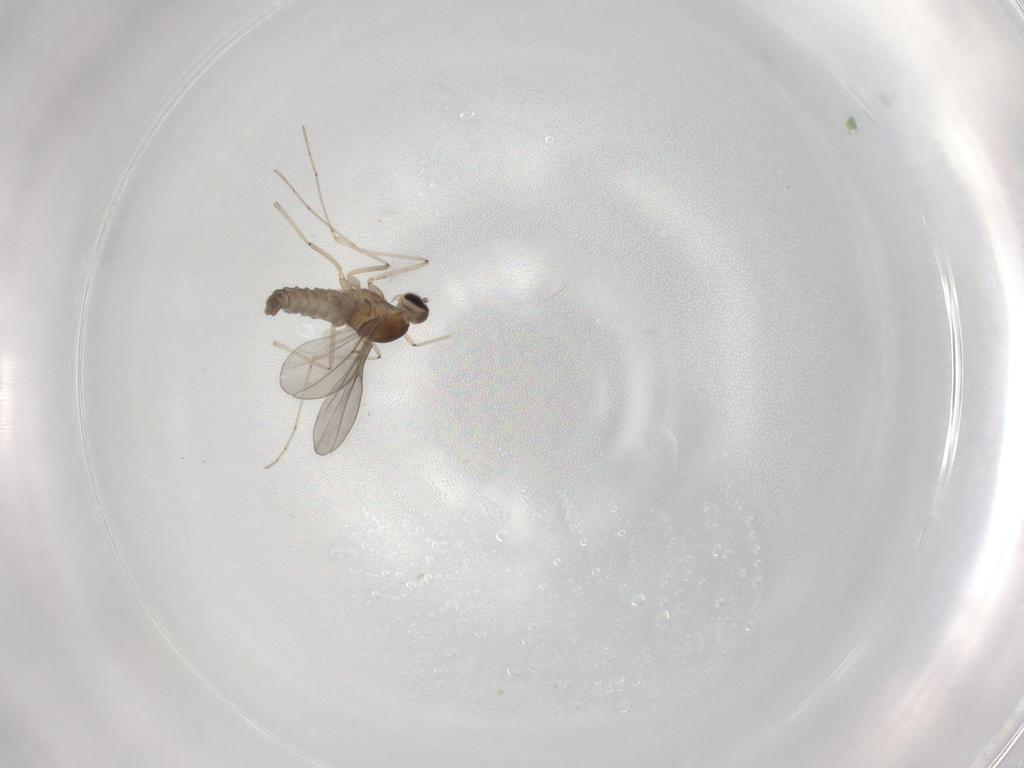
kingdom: Animalia
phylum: Arthropoda
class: Insecta
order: Diptera
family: Cecidomyiidae
